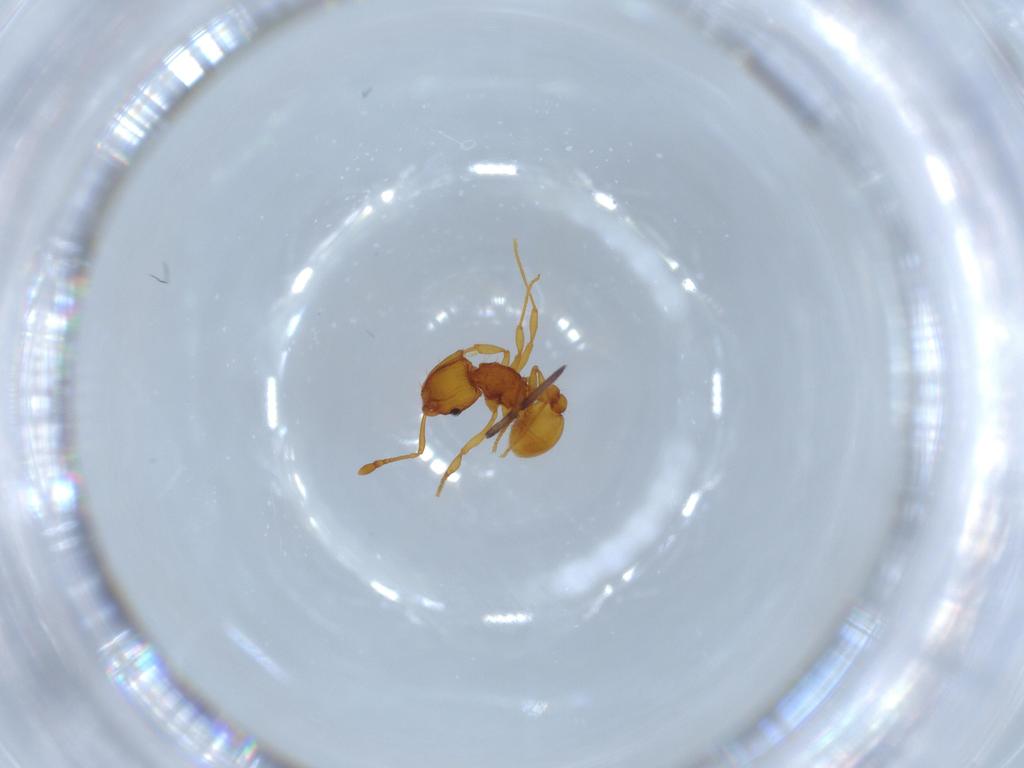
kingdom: Animalia
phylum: Arthropoda
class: Insecta
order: Hymenoptera
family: Formicidae
